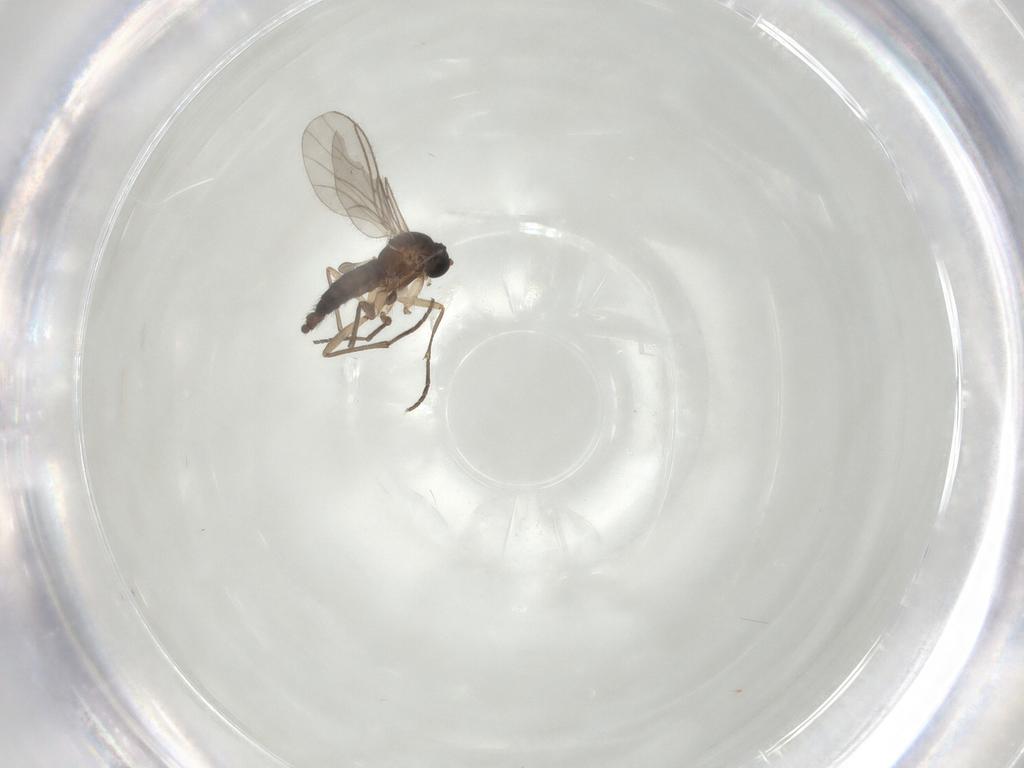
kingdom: Animalia
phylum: Arthropoda
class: Insecta
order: Diptera
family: Sciaridae
